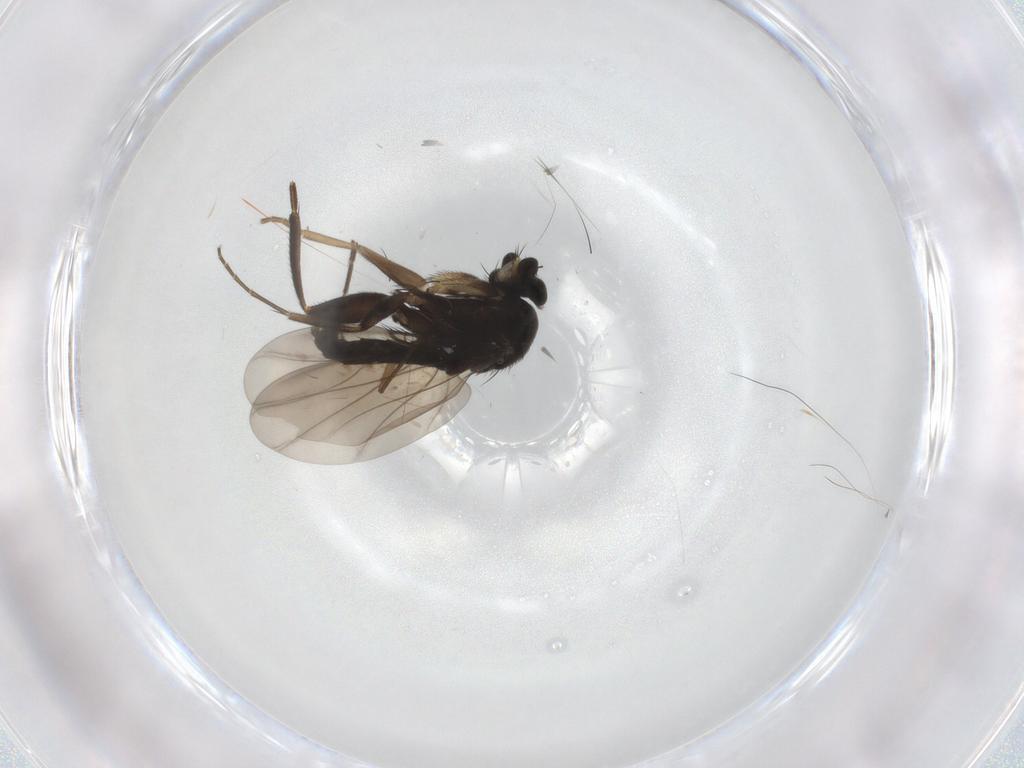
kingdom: Animalia
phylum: Arthropoda
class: Insecta
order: Diptera
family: Phoridae
